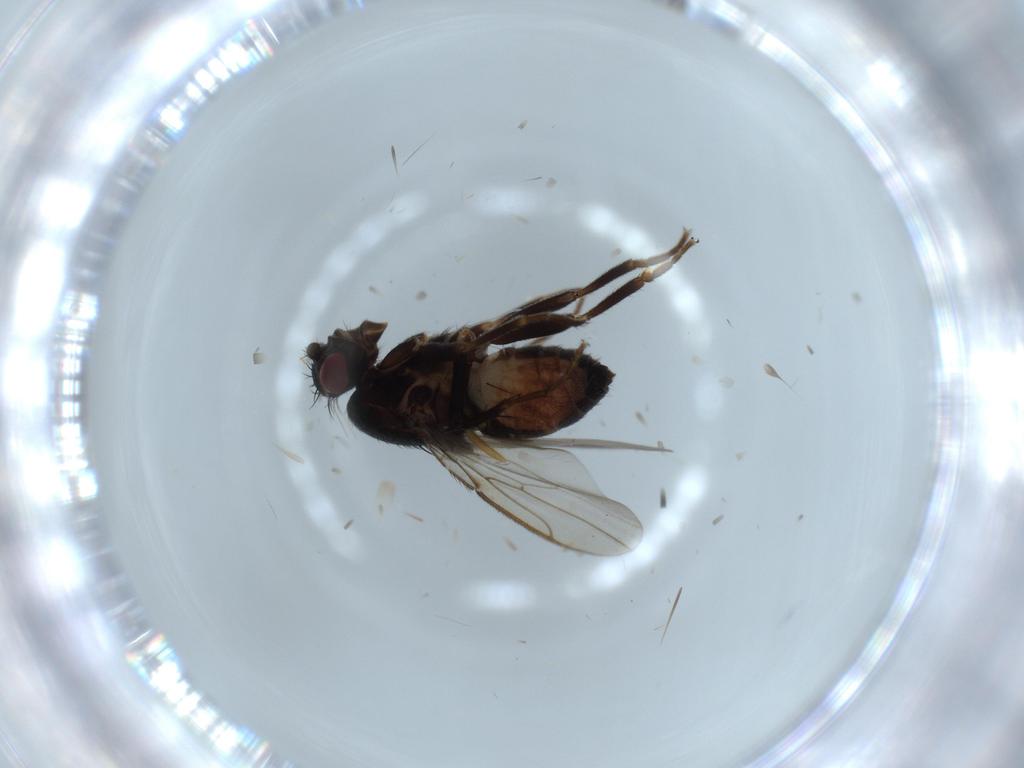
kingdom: Animalia
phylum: Arthropoda
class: Insecta
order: Diptera
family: Sphaeroceridae
